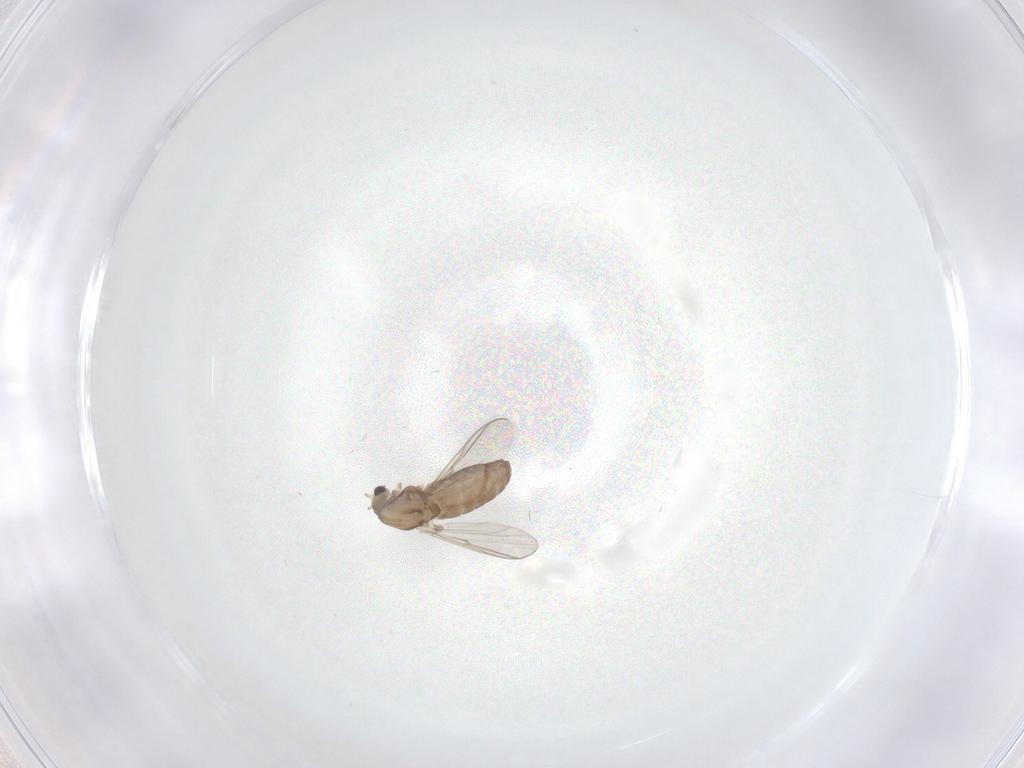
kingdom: Animalia
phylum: Arthropoda
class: Insecta
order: Diptera
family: Chironomidae
